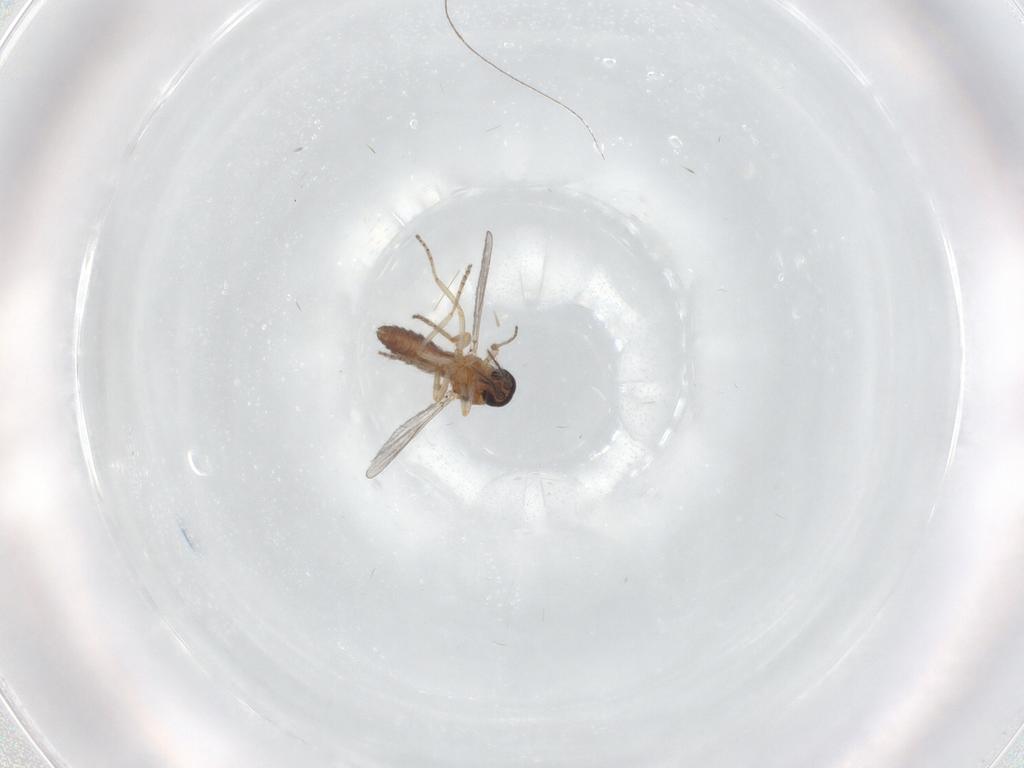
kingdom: Animalia
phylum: Arthropoda
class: Insecta
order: Diptera
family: Ceratopogonidae
